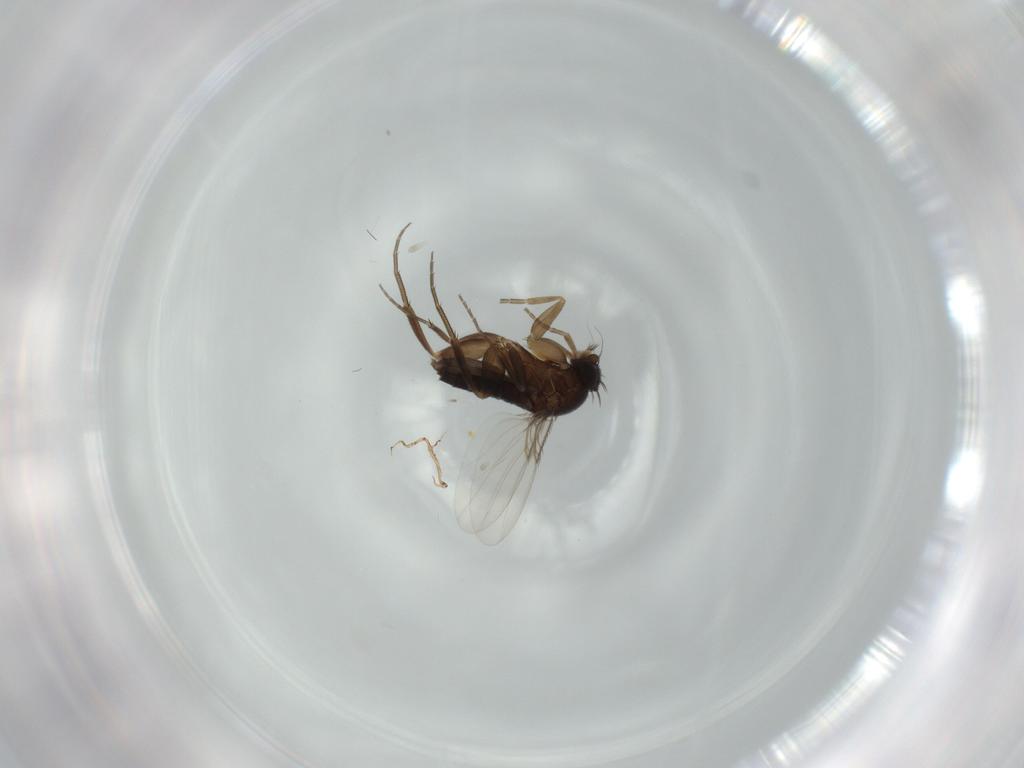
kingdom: Animalia
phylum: Arthropoda
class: Insecta
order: Diptera
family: Phoridae
